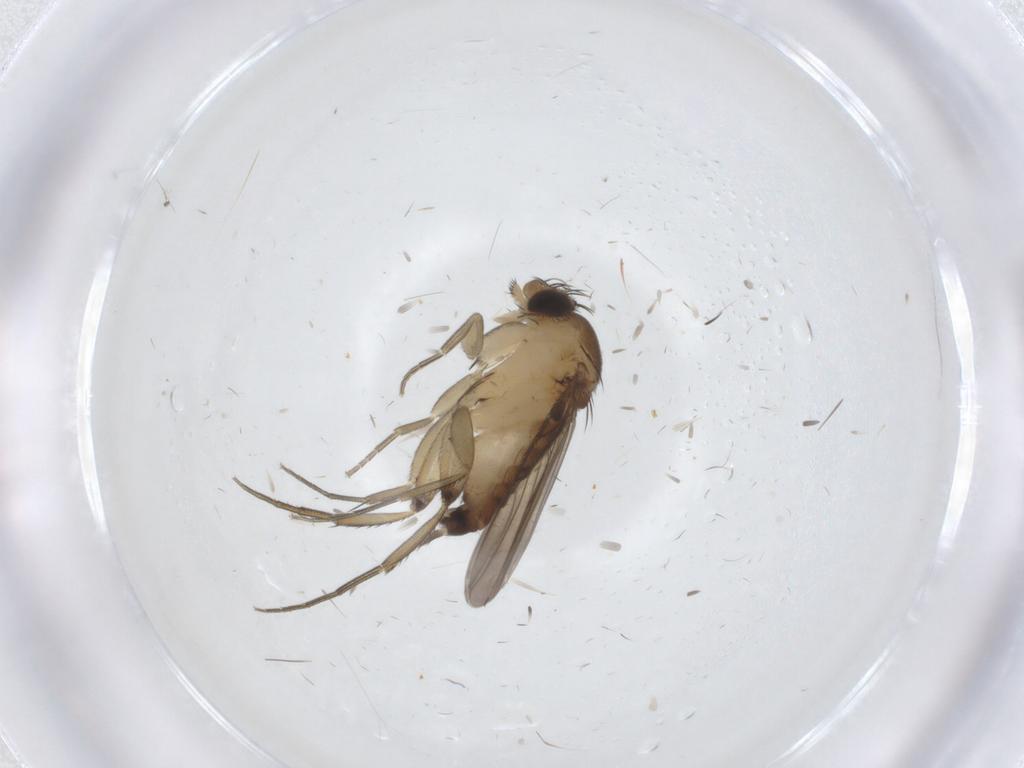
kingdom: Animalia
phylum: Arthropoda
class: Insecta
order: Diptera
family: Phoridae
